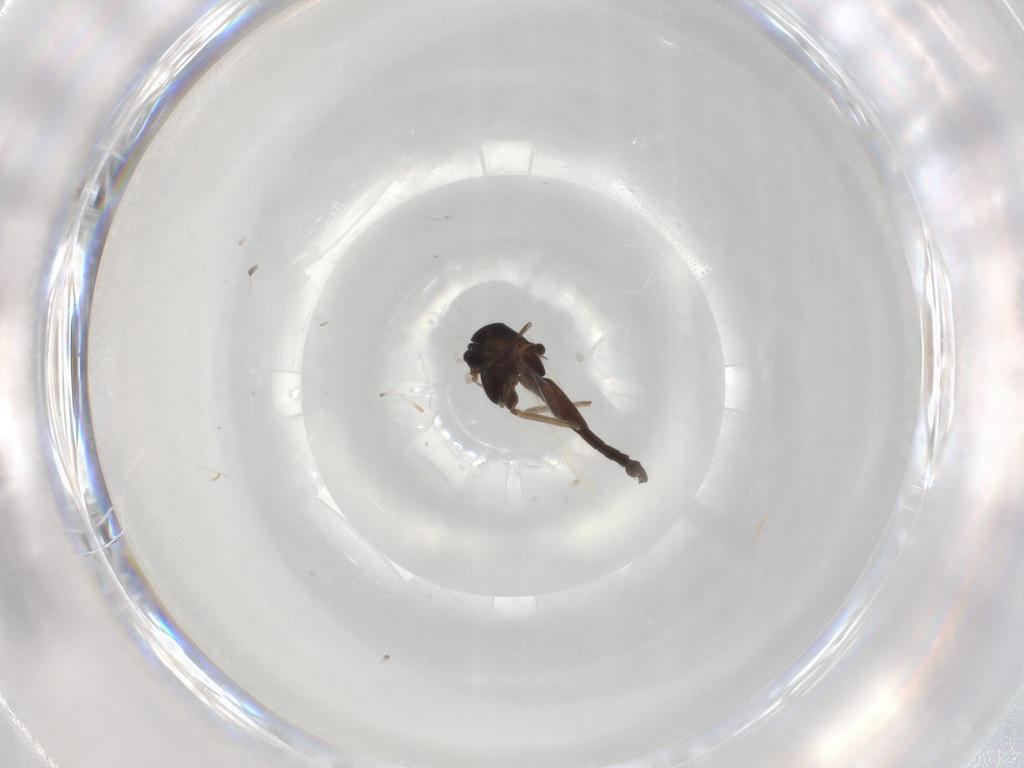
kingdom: Animalia
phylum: Arthropoda
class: Insecta
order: Diptera
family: Chironomidae
